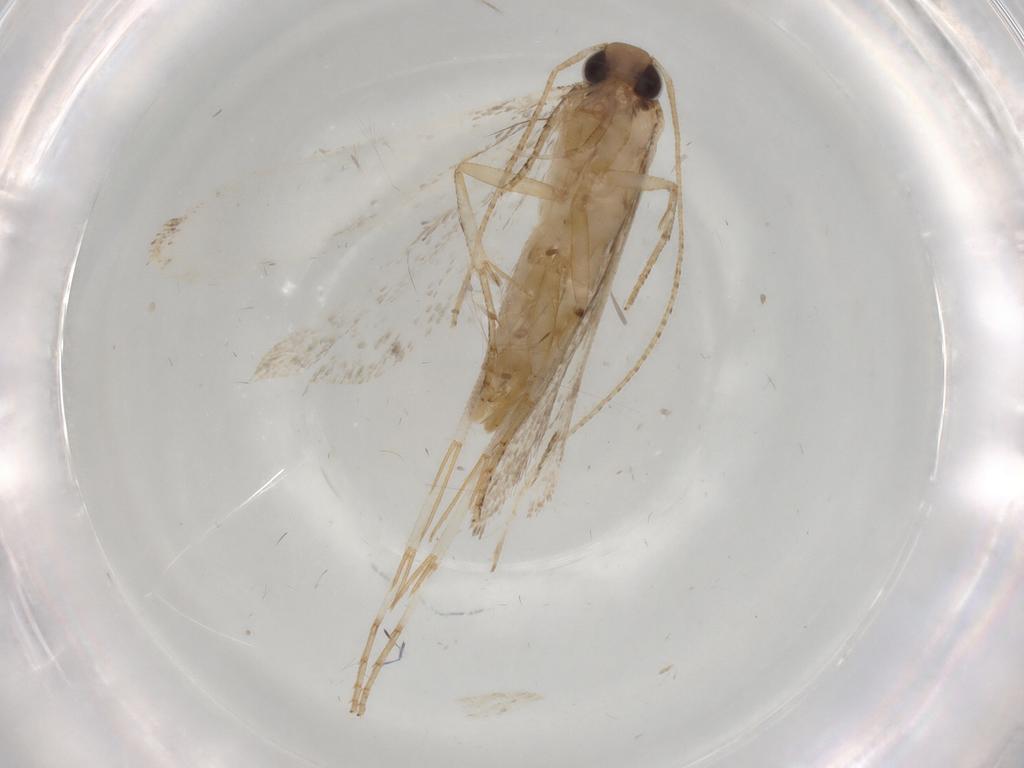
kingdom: Animalia
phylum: Arthropoda
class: Insecta
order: Lepidoptera
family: Gelechiidae
